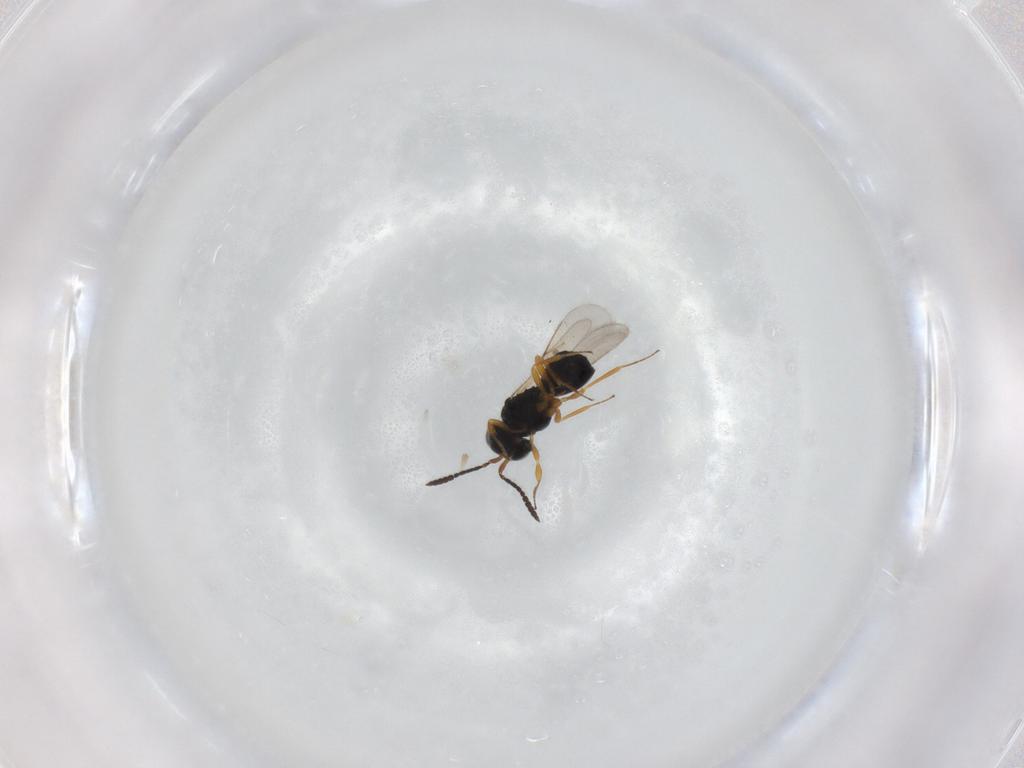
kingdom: Animalia
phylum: Arthropoda
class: Insecta
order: Hymenoptera
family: Scelionidae
